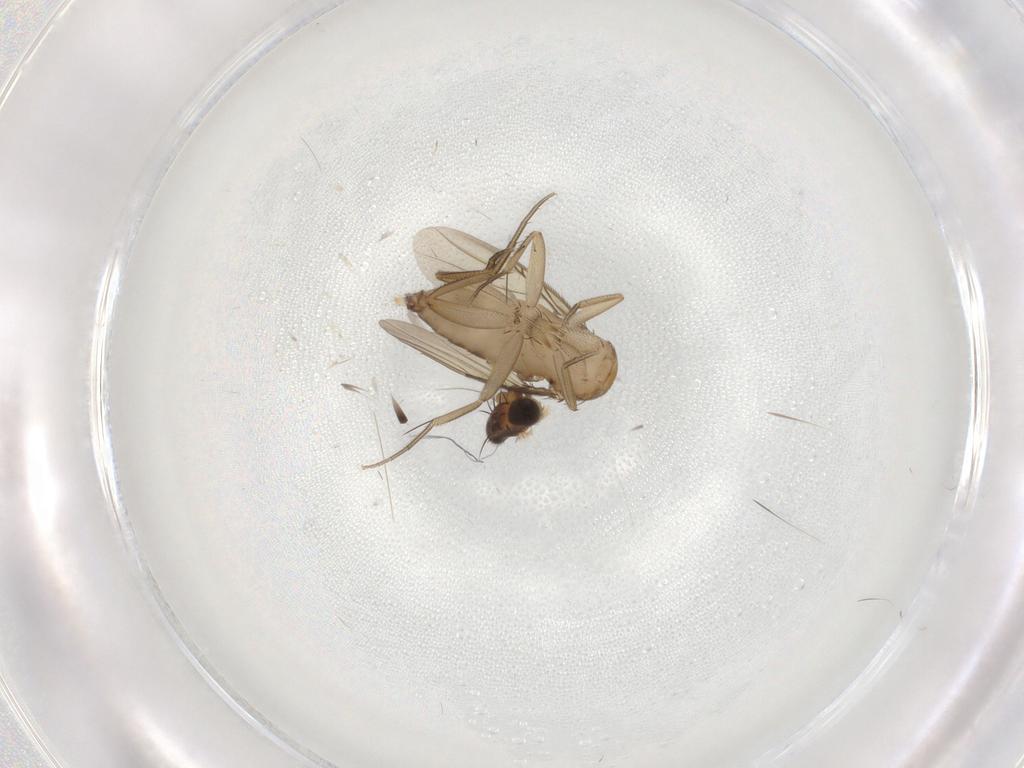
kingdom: Animalia
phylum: Arthropoda
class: Insecta
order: Diptera
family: Phoridae
